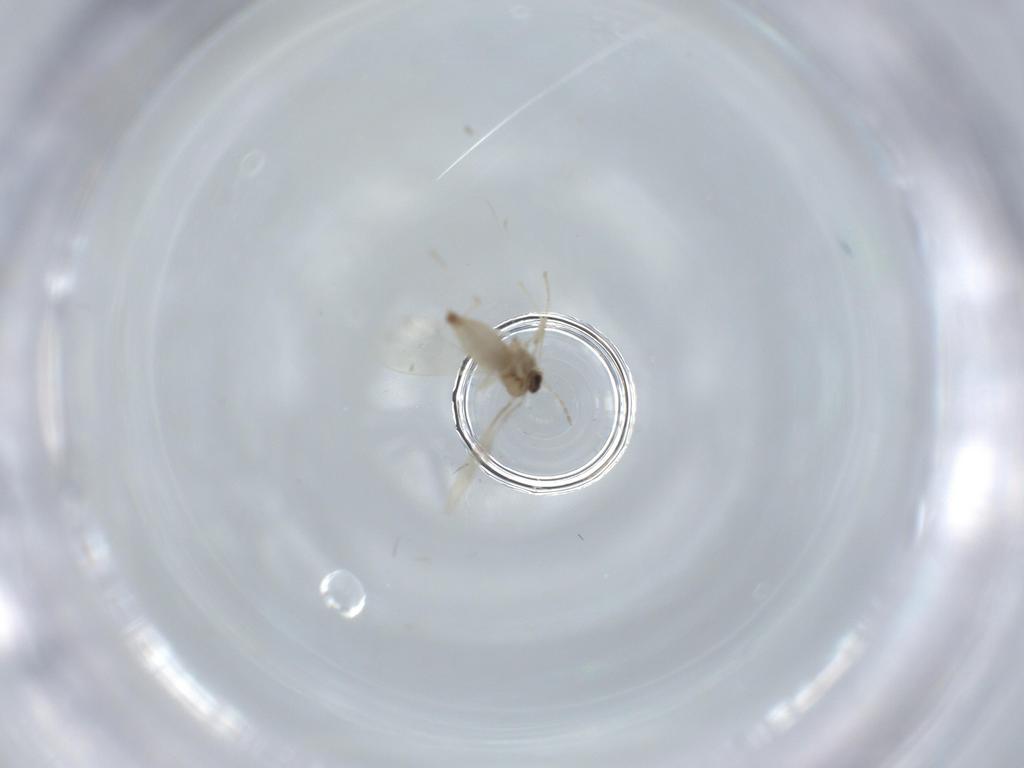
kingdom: Animalia
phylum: Arthropoda
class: Insecta
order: Diptera
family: Cecidomyiidae
